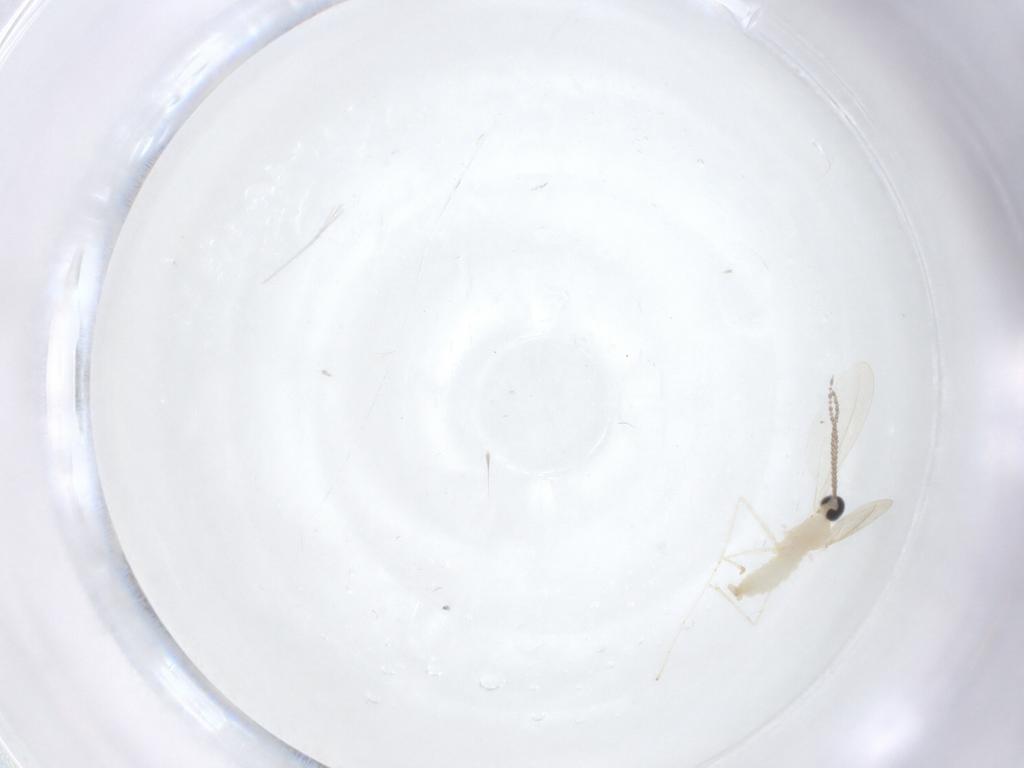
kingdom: Animalia
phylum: Arthropoda
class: Insecta
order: Diptera
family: Cecidomyiidae
